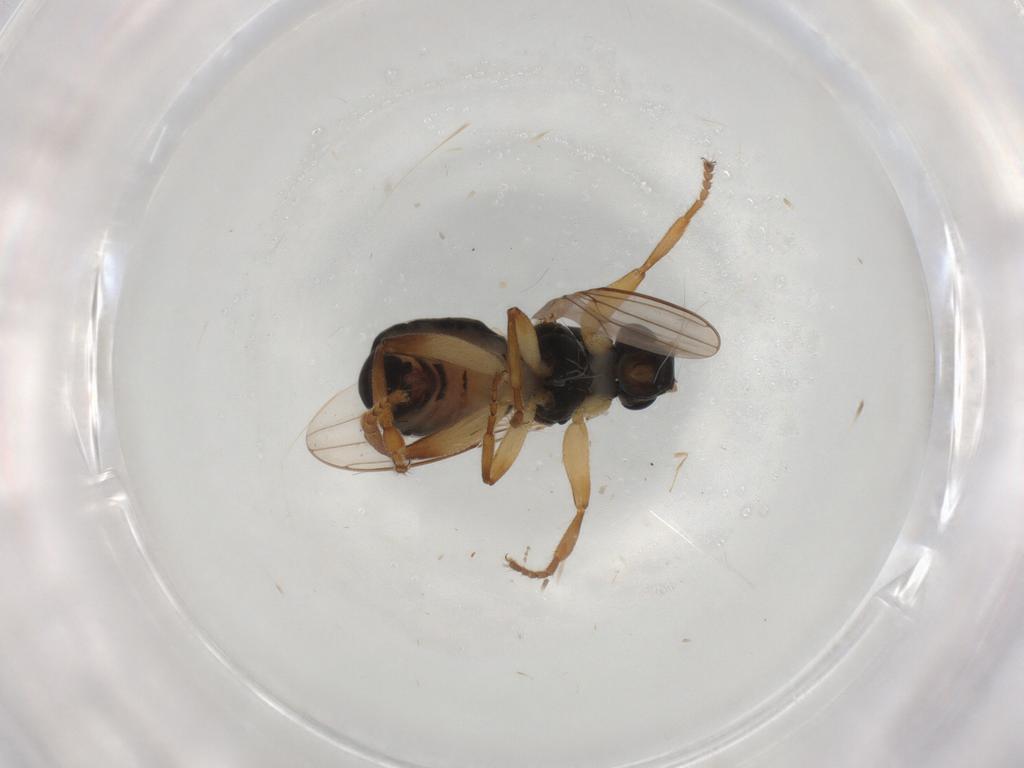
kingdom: Animalia
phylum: Arthropoda
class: Insecta
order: Diptera
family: Sphaeroceridae
